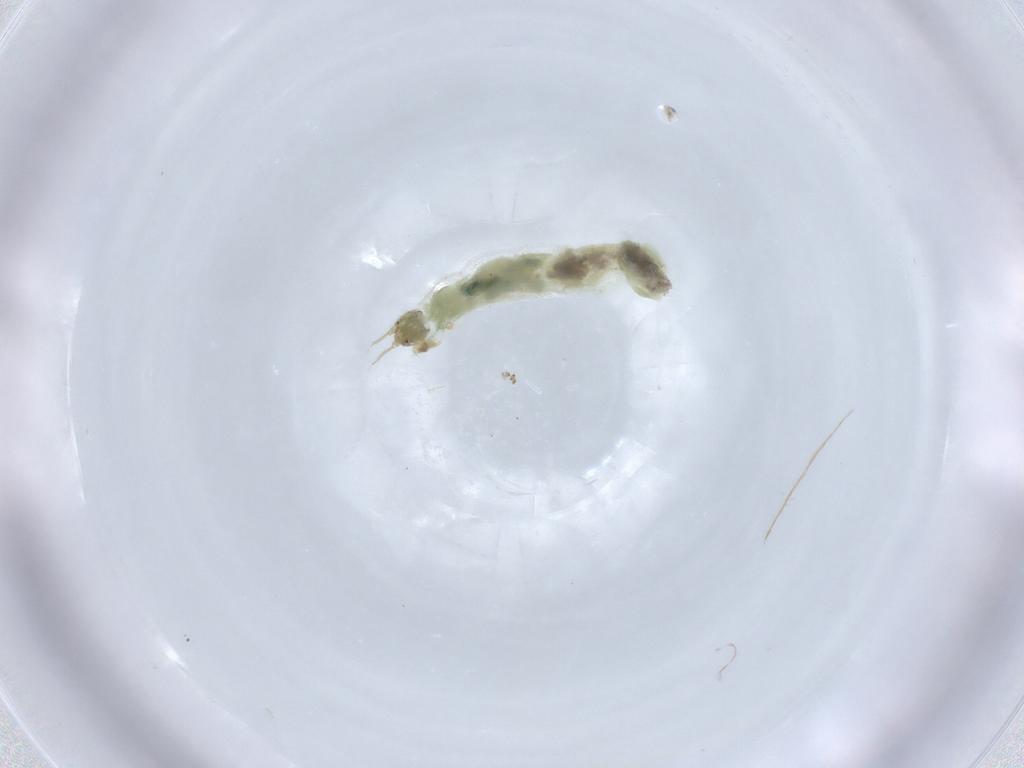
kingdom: Animalia
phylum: Arthropoda
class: Insecta
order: Diptera
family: Chironomidae
